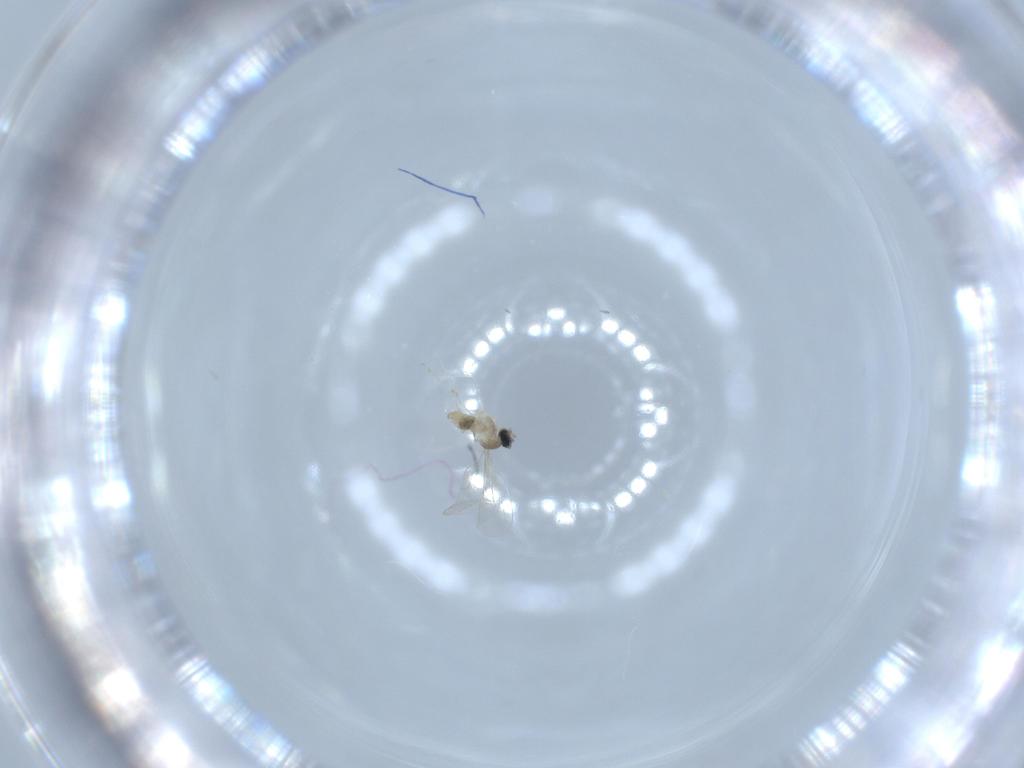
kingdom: Animalia
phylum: Arthropoda
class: Insecta
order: Diptera
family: Cecidomyiidae
